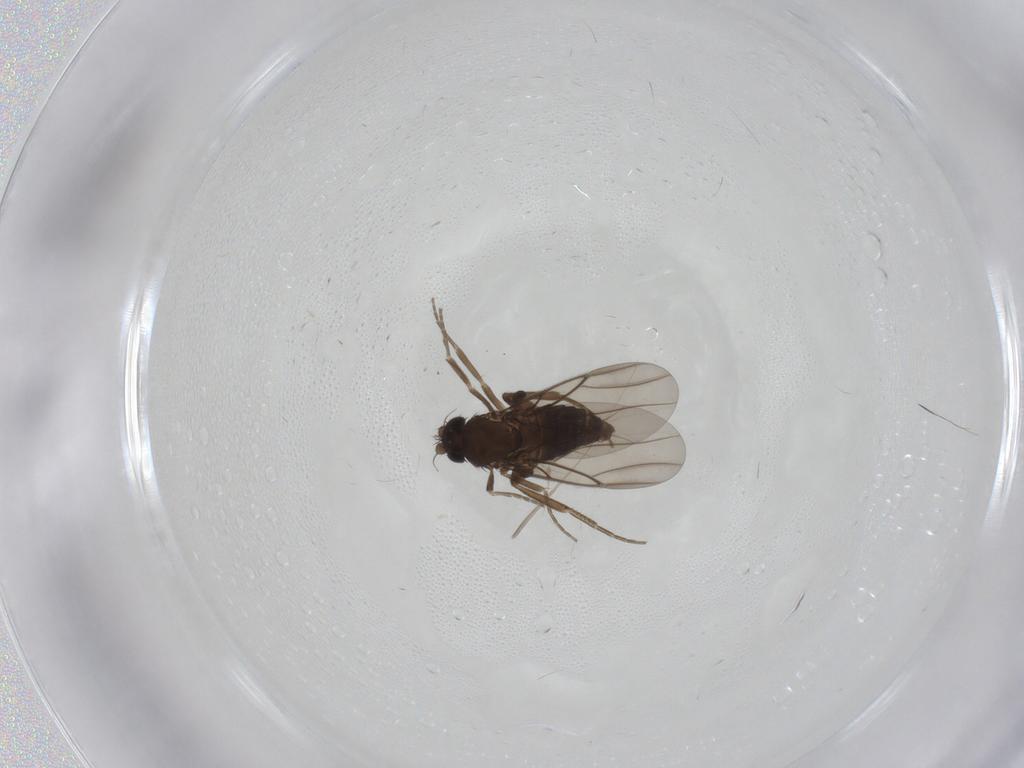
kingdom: Animalia
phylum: Arthropoda
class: Insecta
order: Diptera
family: Phoridae
